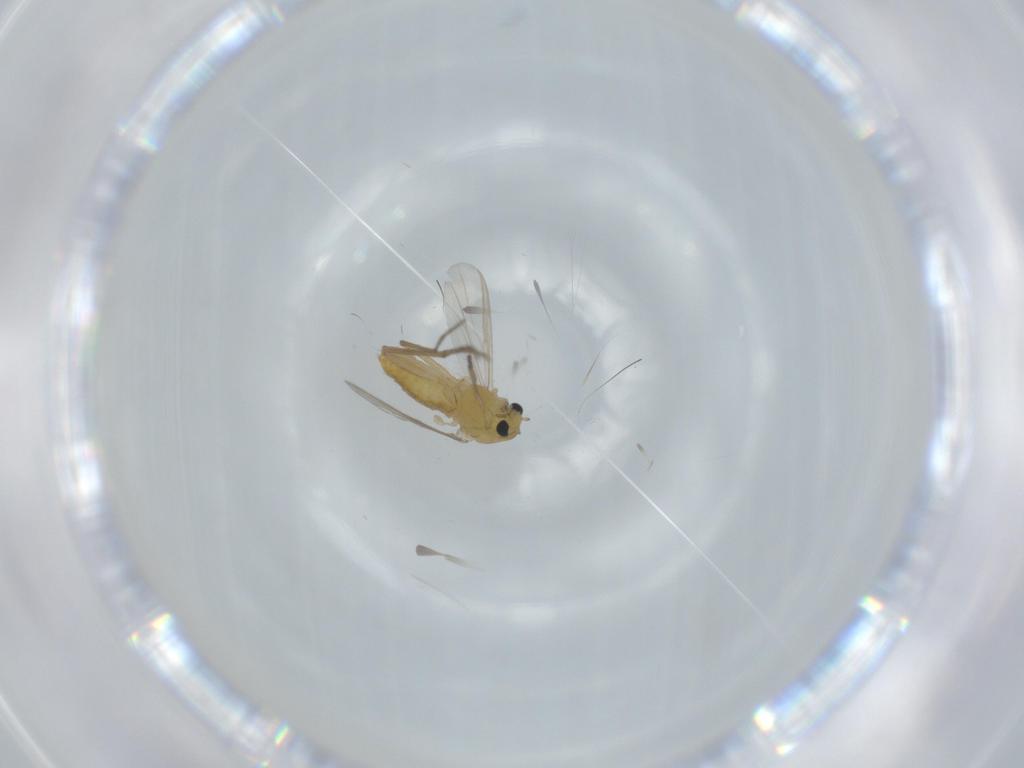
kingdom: Animalia
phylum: Arthropoda
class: Insecta
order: Diptera
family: Chironomidae
